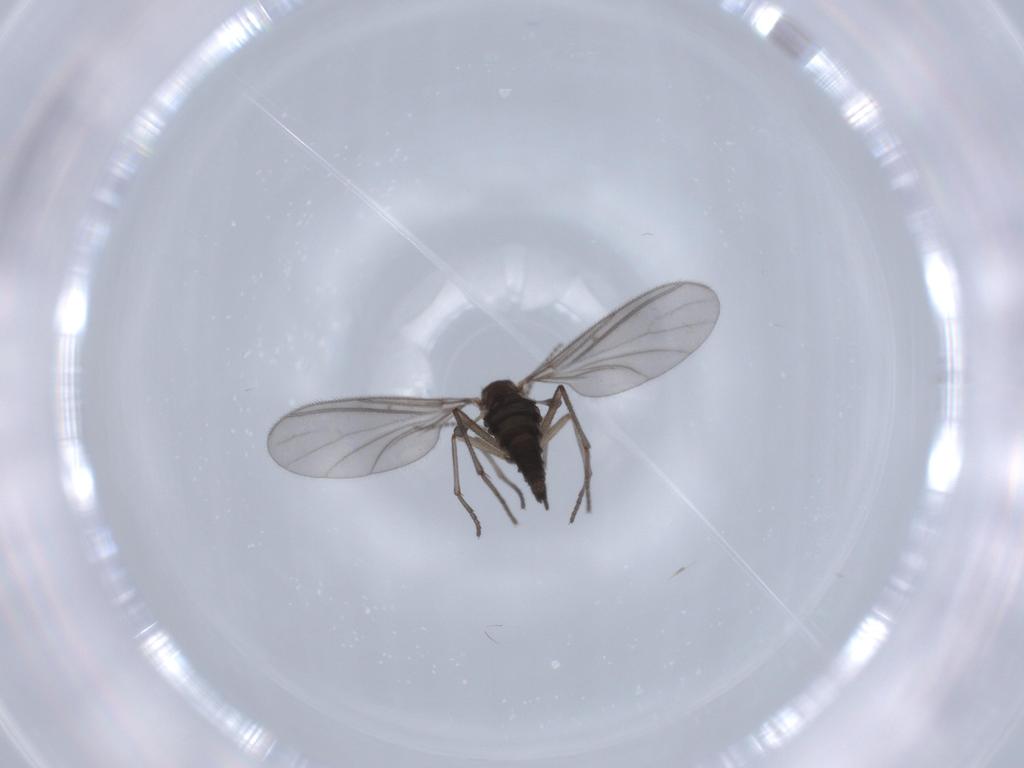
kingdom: Animalia
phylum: Arthropoda
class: Insecta
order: Diptera
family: Sciaridae
